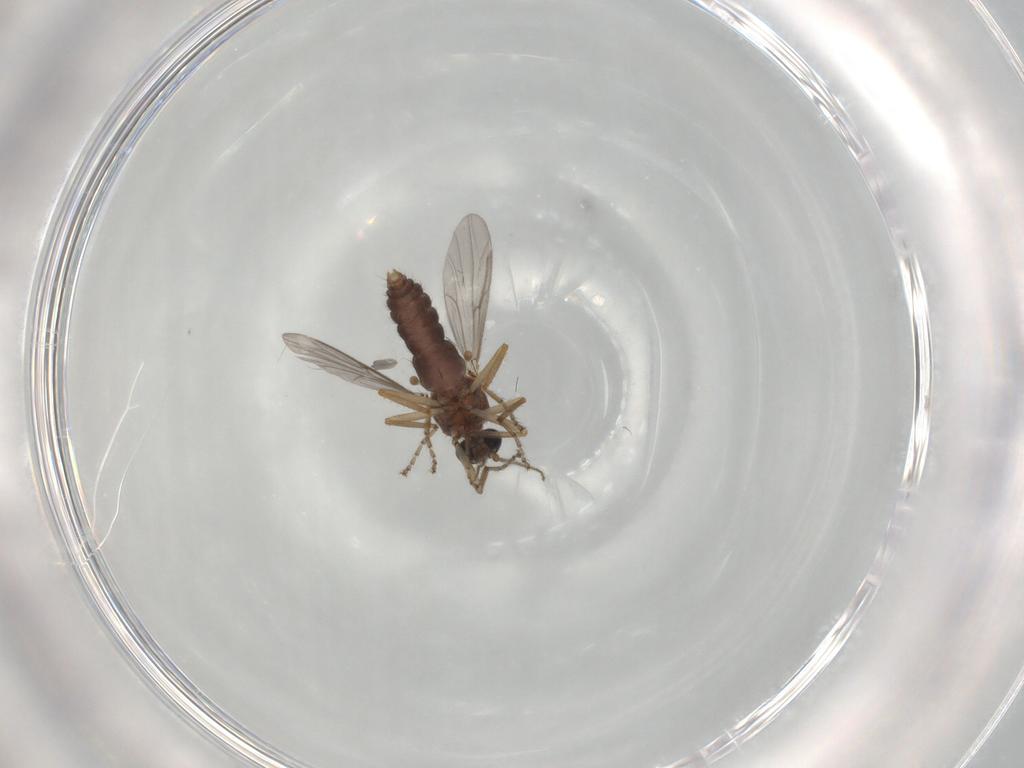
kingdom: Animalia
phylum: Arthropoda
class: Insecta
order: Diptera
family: Ceratopogonidae
